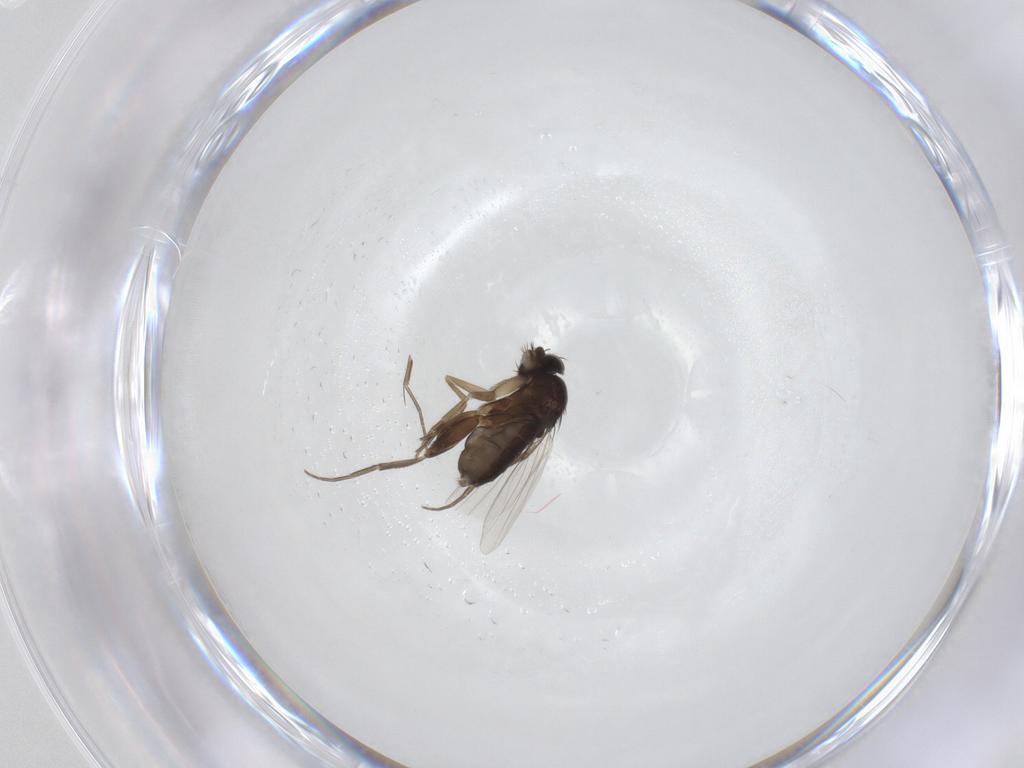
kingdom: Animalia
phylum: Arthropoda
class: Insecta
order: Diptera
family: Phoridae
